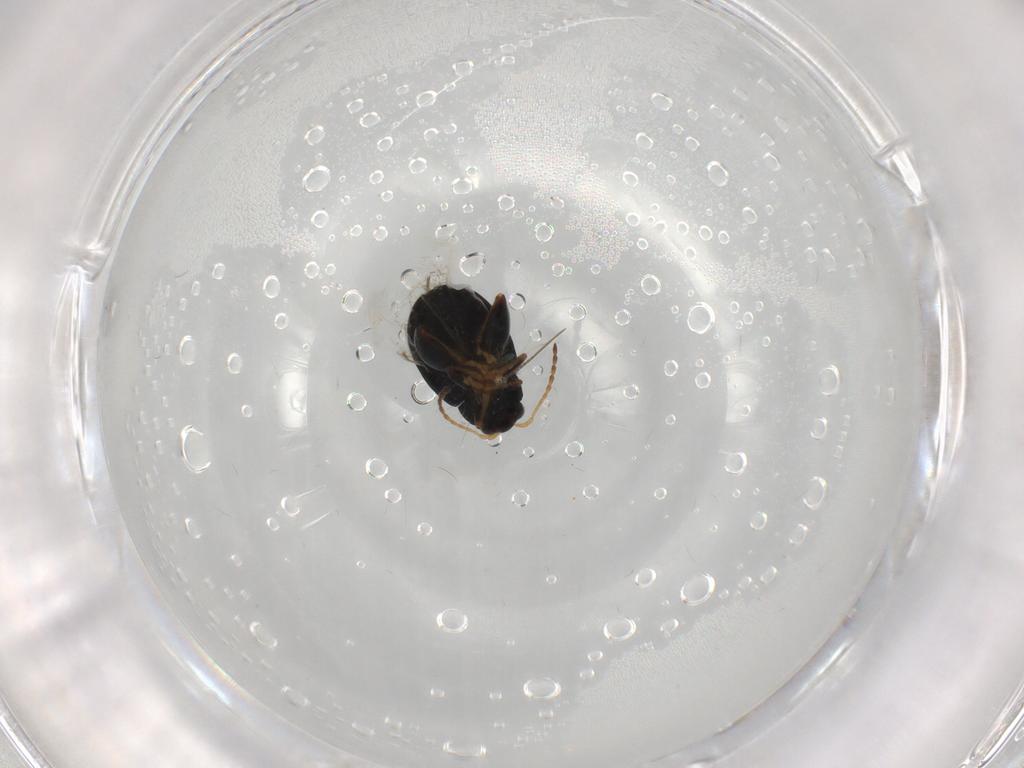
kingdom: Animalia
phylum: Arthropoda
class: Insecta
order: Coleoptera
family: Chrysomelidae
